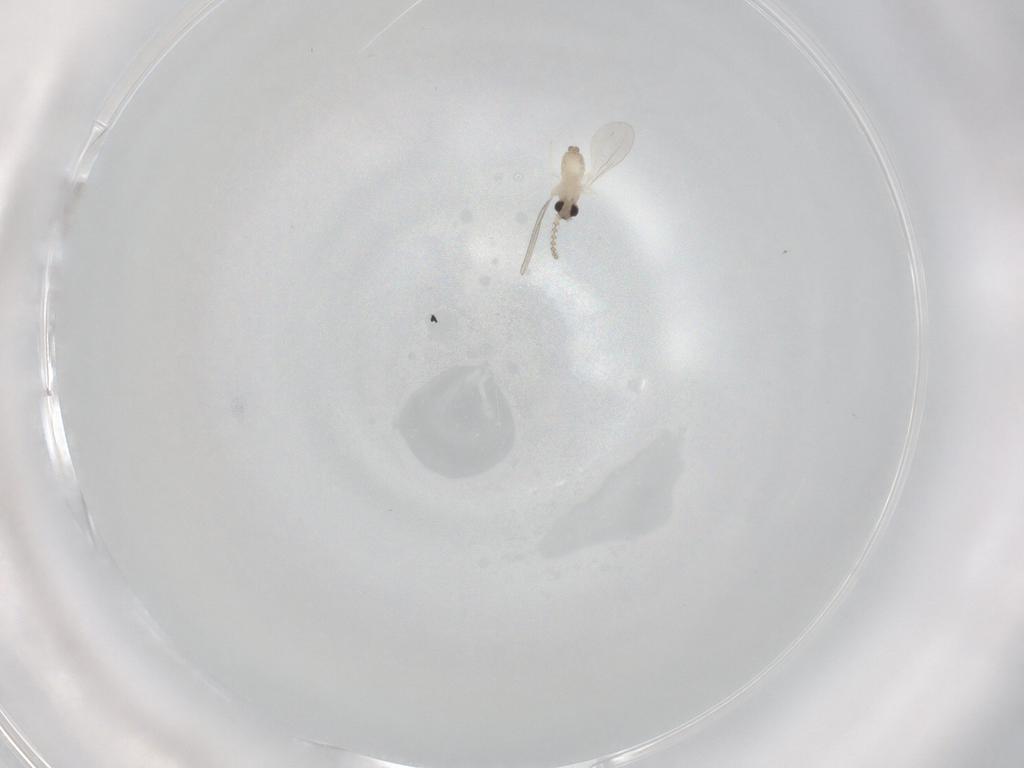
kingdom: Animalia
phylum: Arthropoda
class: Insecta
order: Diptera
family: Cecidomyiidae
